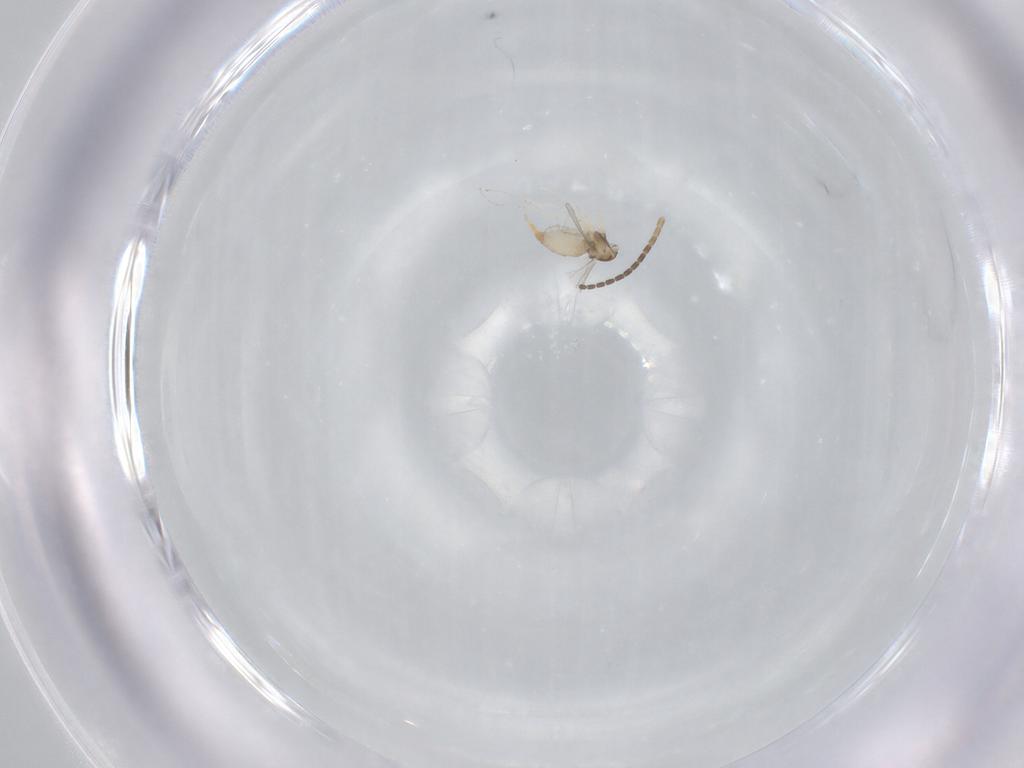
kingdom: Animalia
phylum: Arthropoda
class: Insecta
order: Diptera
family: Cecidomyiidae
